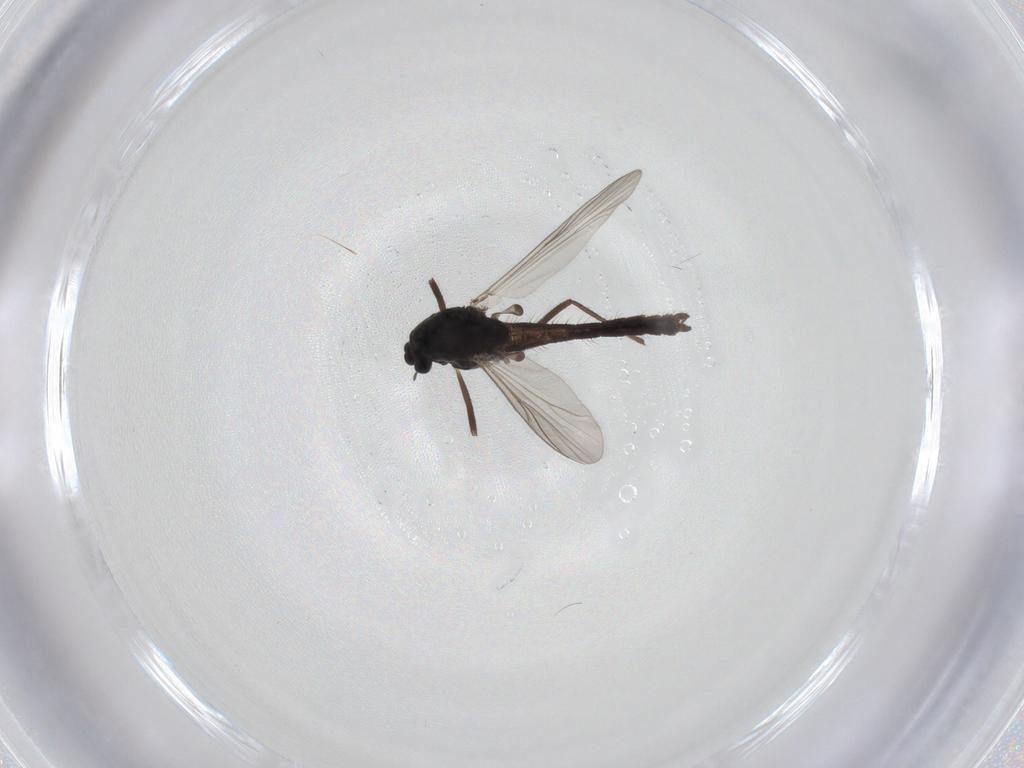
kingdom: Animalia
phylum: Arthropoda
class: Insecta
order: Diptera
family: Chironomidae
